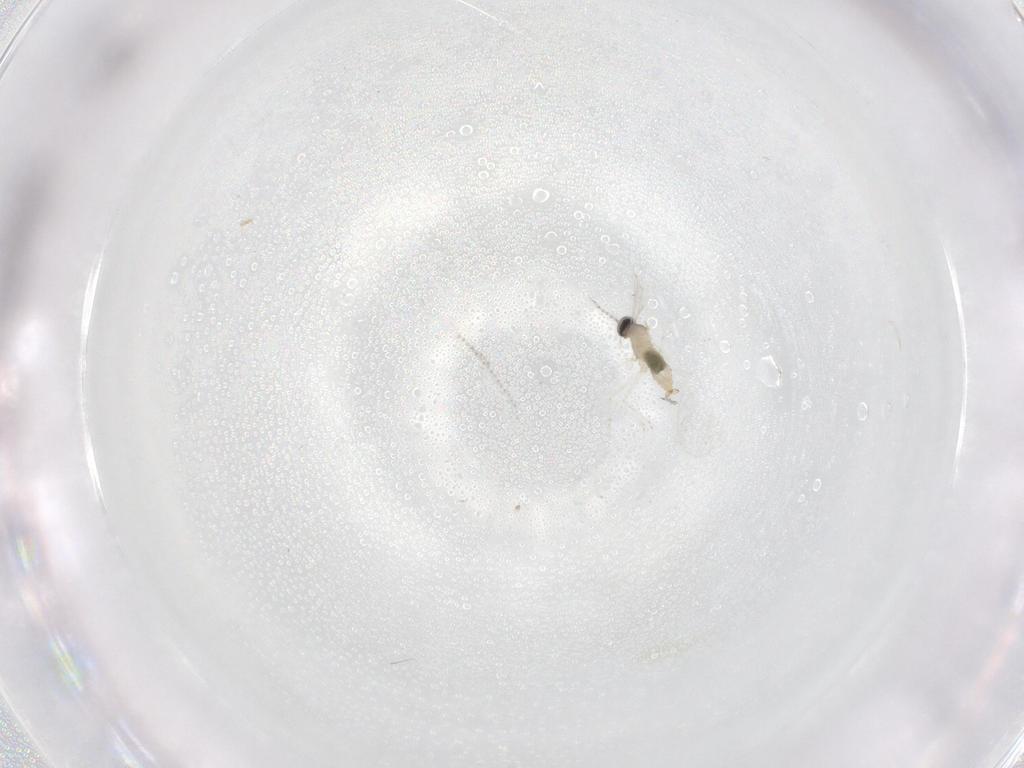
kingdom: Animalia
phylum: Arthropoda
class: Insecta
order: Diptera
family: Cecidomyiidae
